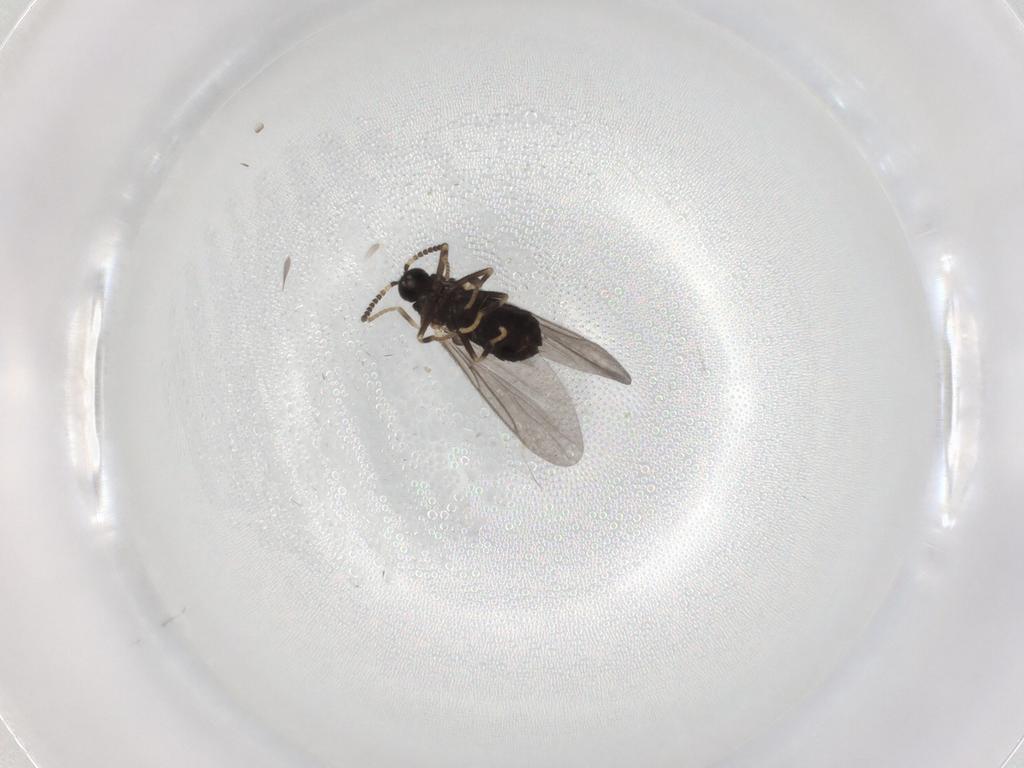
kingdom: Animalia
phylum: Arthropoda
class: Insecta
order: Diptera
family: Scatopsidae
